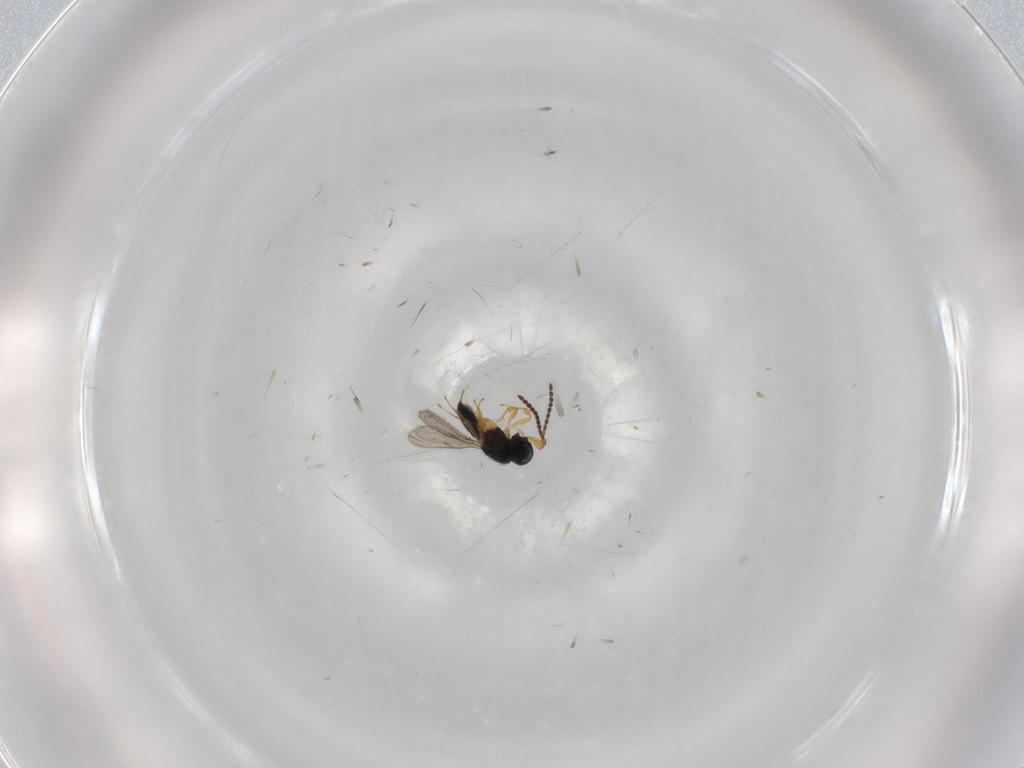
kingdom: Animalia
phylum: Arthropoda
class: Insecta
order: Hymenoptera
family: Scelionidae
